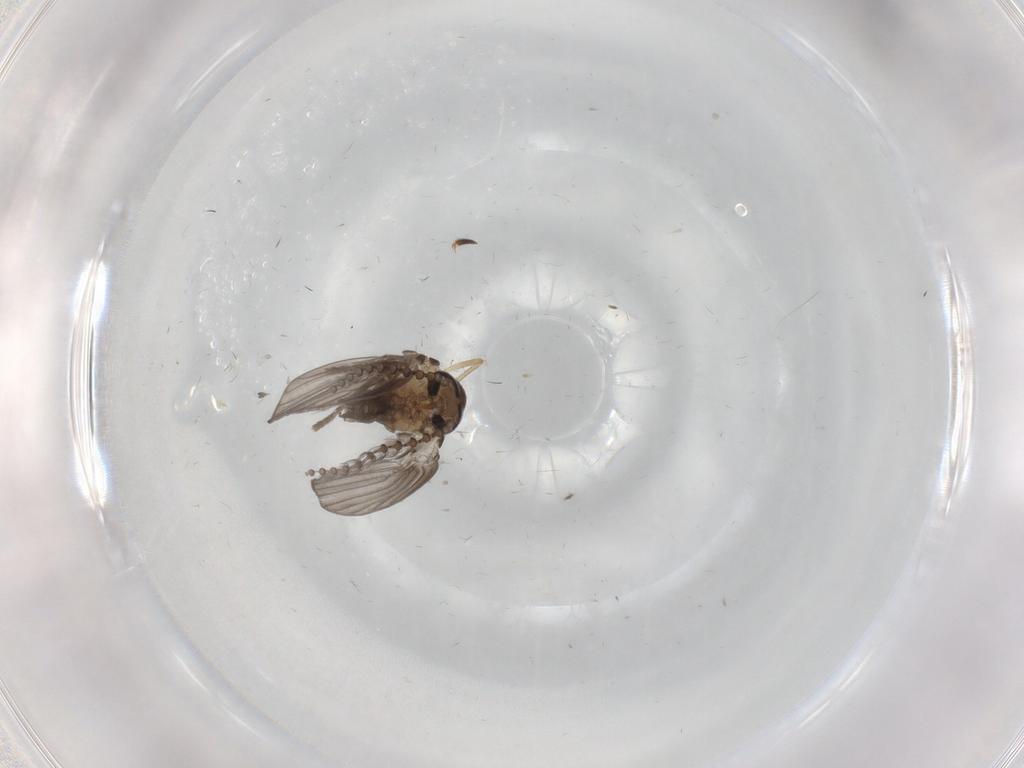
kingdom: Animalia
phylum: Arthropoda
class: Insecta
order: Diptera
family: Psychodidae
